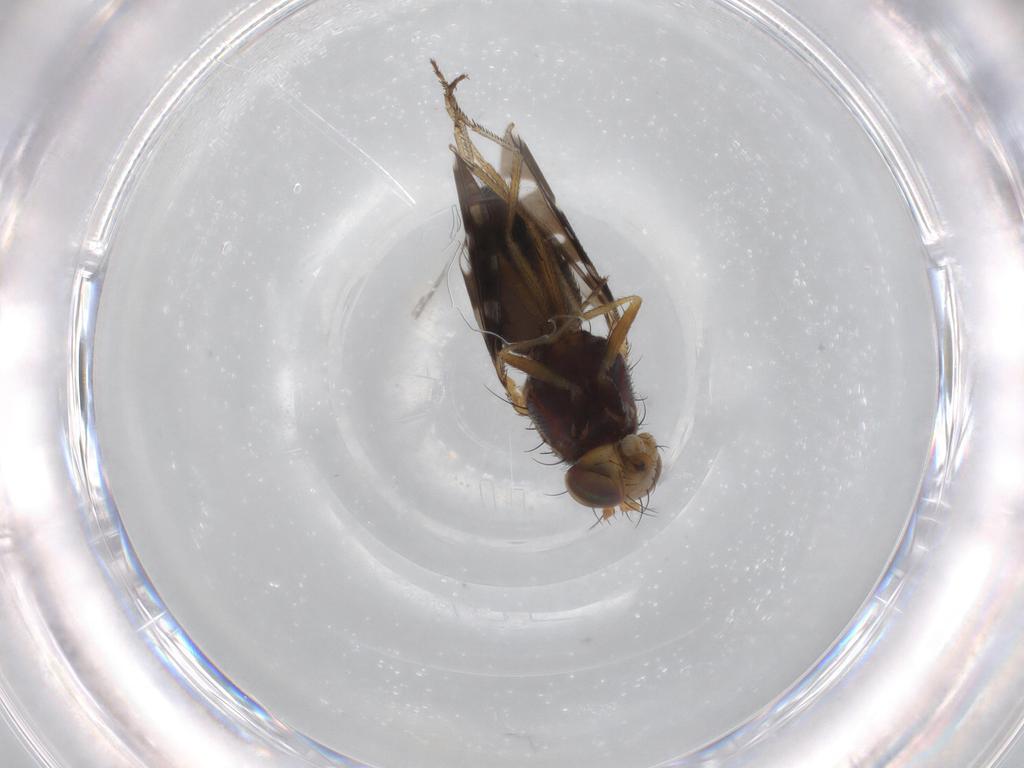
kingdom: Animalia
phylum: Arthropoda
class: Insecta
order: Diptera
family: Ephydridae
